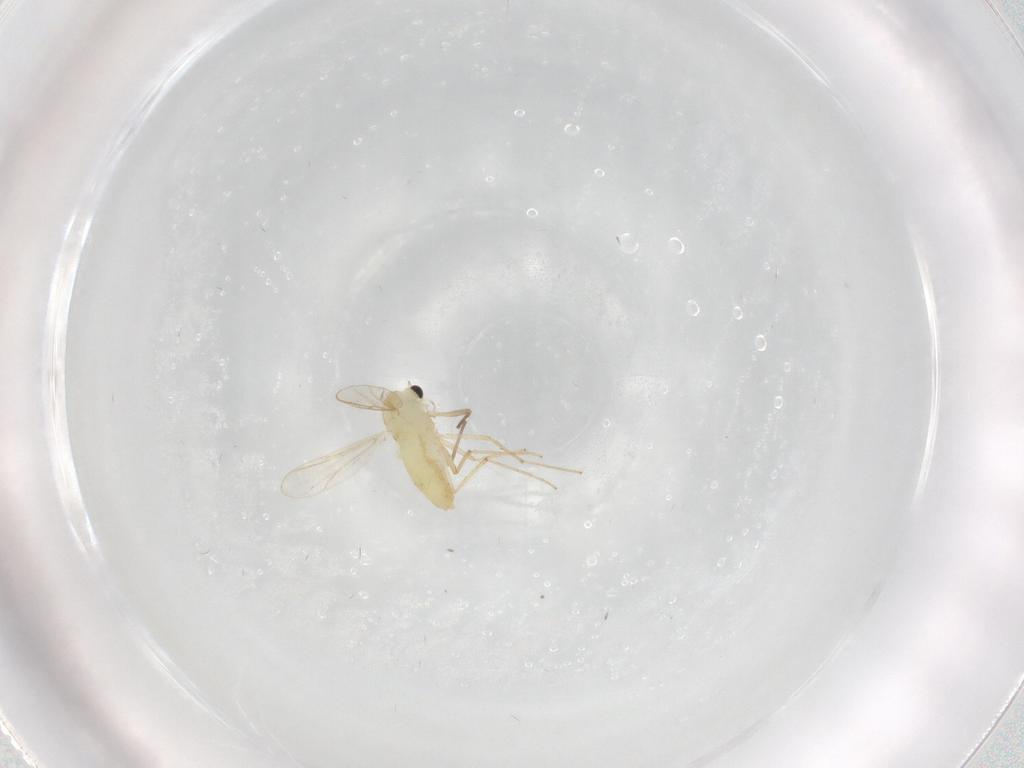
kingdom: Animalia
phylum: Arthropoda
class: Insecta
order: Diptera
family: Chironomidae
